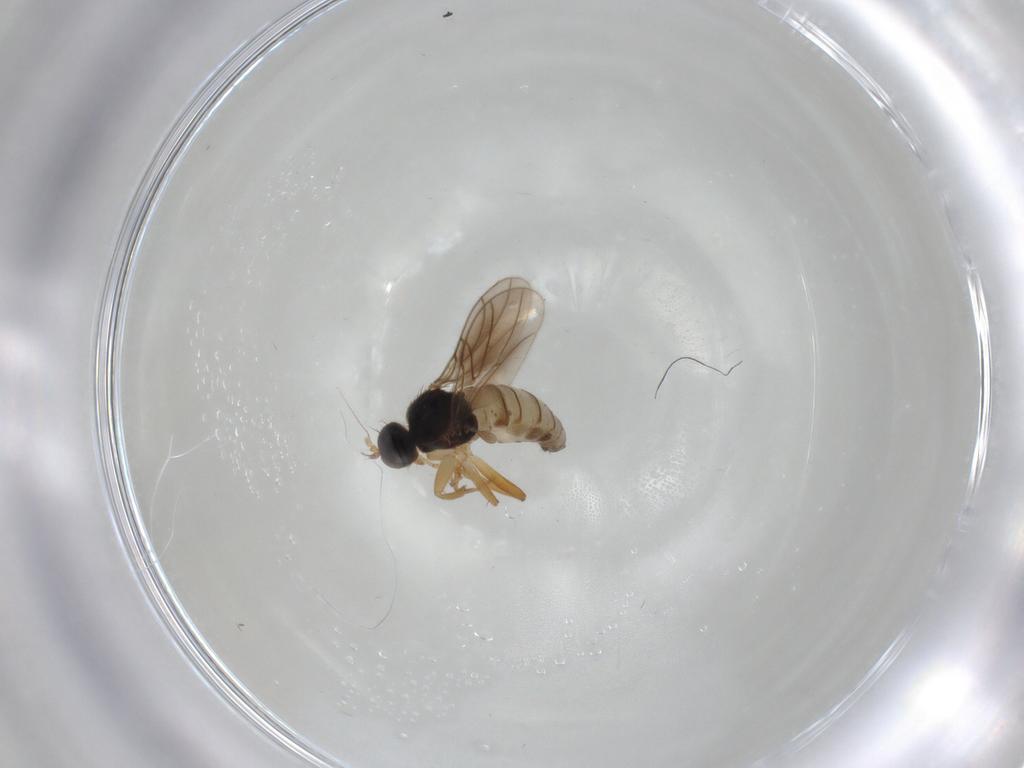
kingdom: Animalia
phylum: Arthropoda
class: Insecta
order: Diptera
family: Hybotidae
